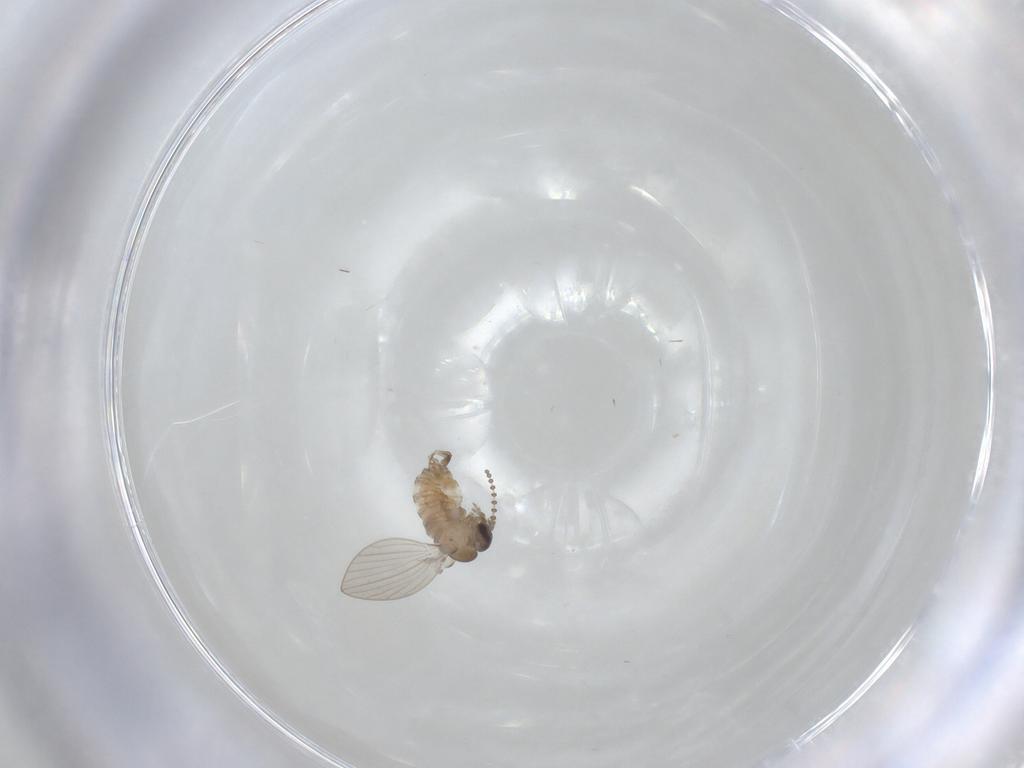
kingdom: Animalia
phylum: Arthropoda
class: Insecta
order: Diptera
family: Psychodidae
